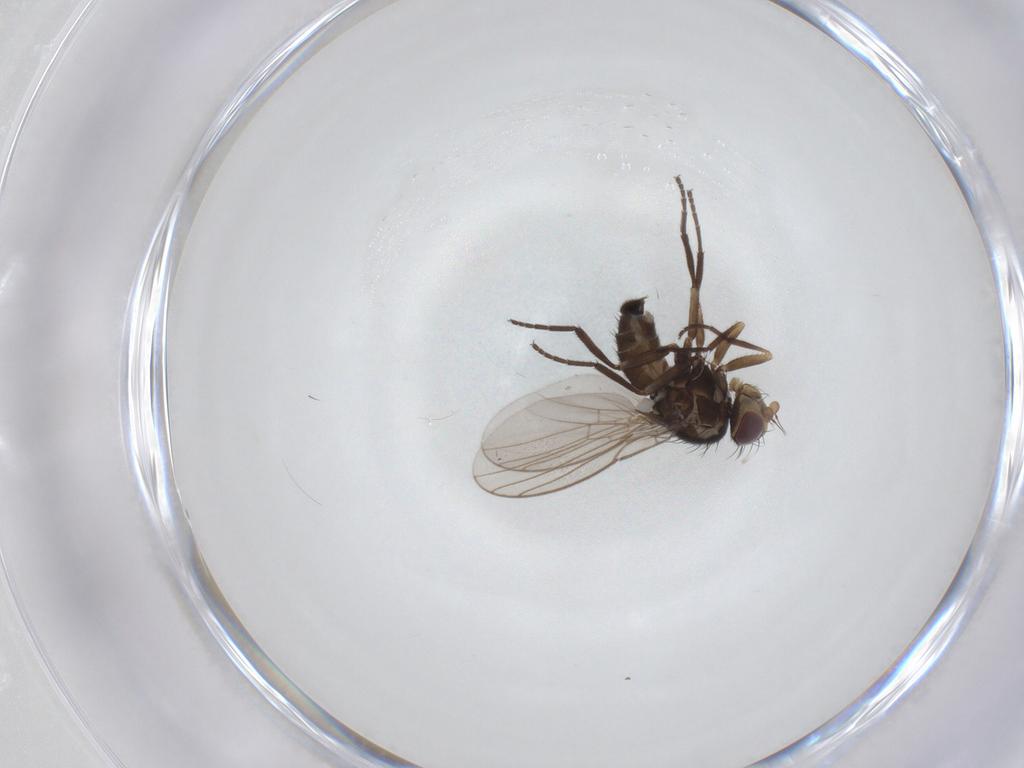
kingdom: Animalia
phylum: Arthropoda
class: Insecta
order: Diptera
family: Agromyzidae
